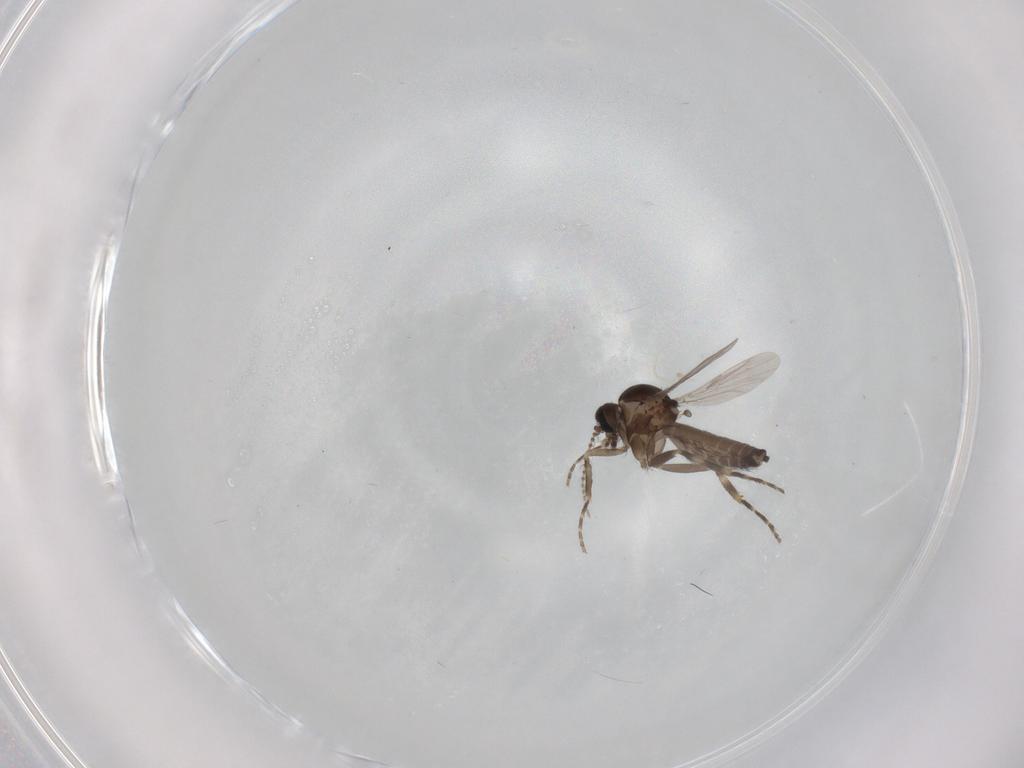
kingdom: Animalia
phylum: Arthropoda
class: Insecta
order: Diptera
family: Ceratopogonidae
